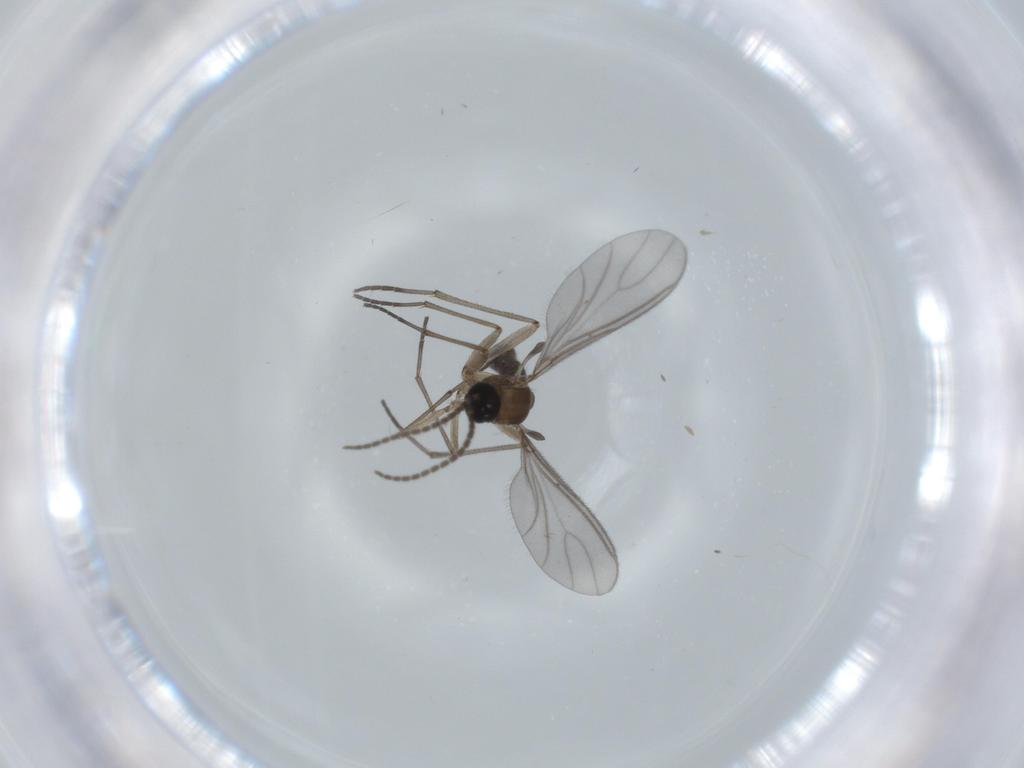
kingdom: Animalia
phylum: Arthropoda
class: Insecta
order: Diptera
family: Sciaridae
